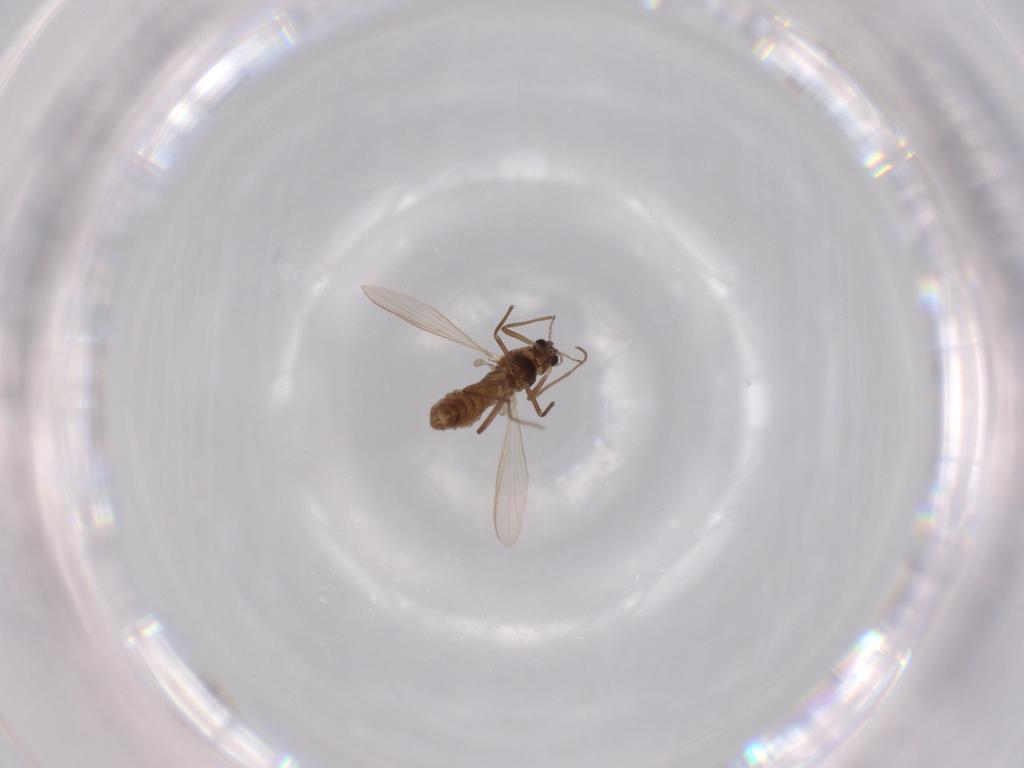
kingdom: Animalia
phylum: Arthropoda
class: Insecta
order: Diptera
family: Chironomidae
